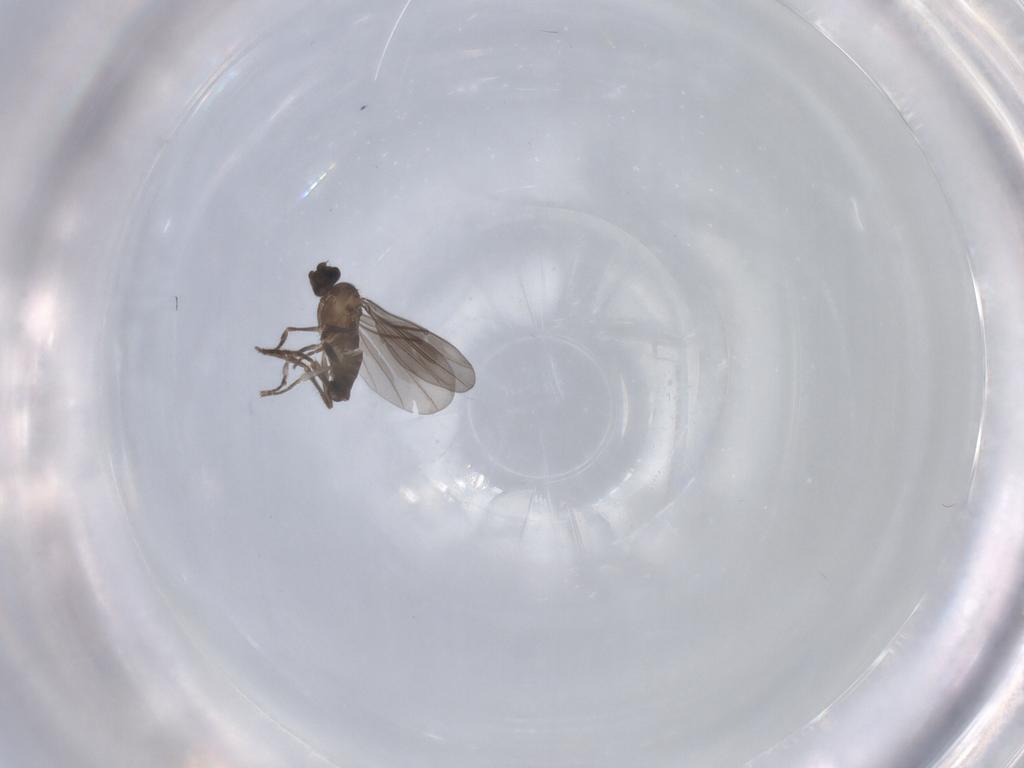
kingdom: Animalia
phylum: Arthropoda
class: Insecta
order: Diptera
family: Phoridae
